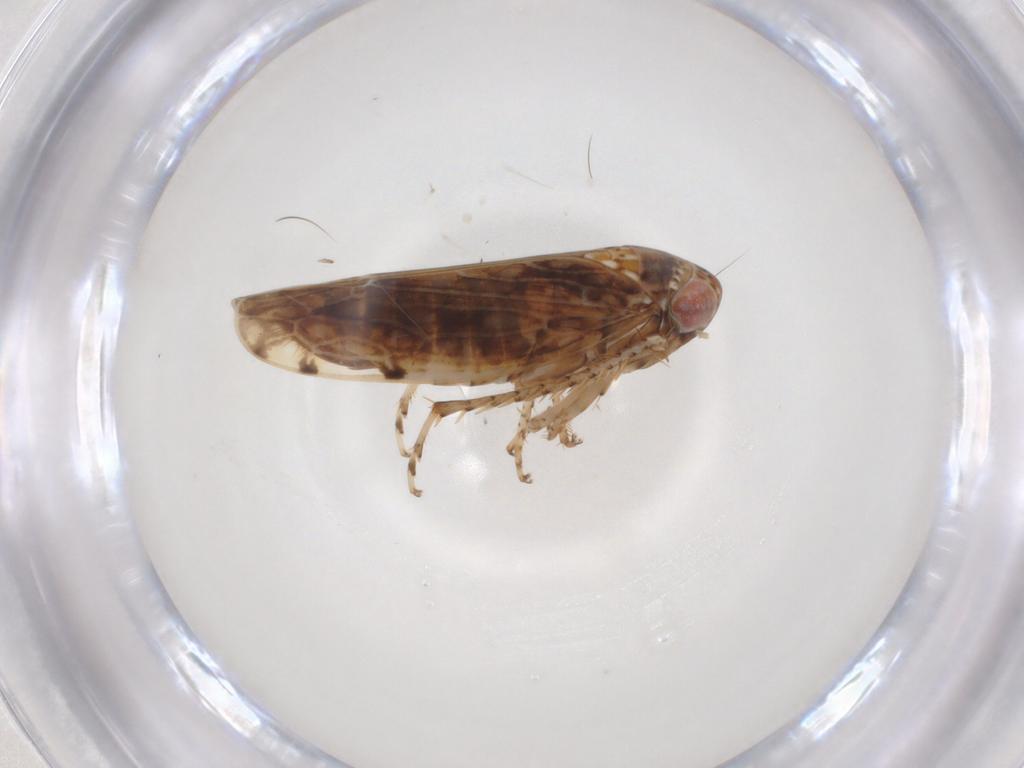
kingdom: Animalia
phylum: Arthropoda
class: Insecta
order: Hemiptera
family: Cicadellidae
